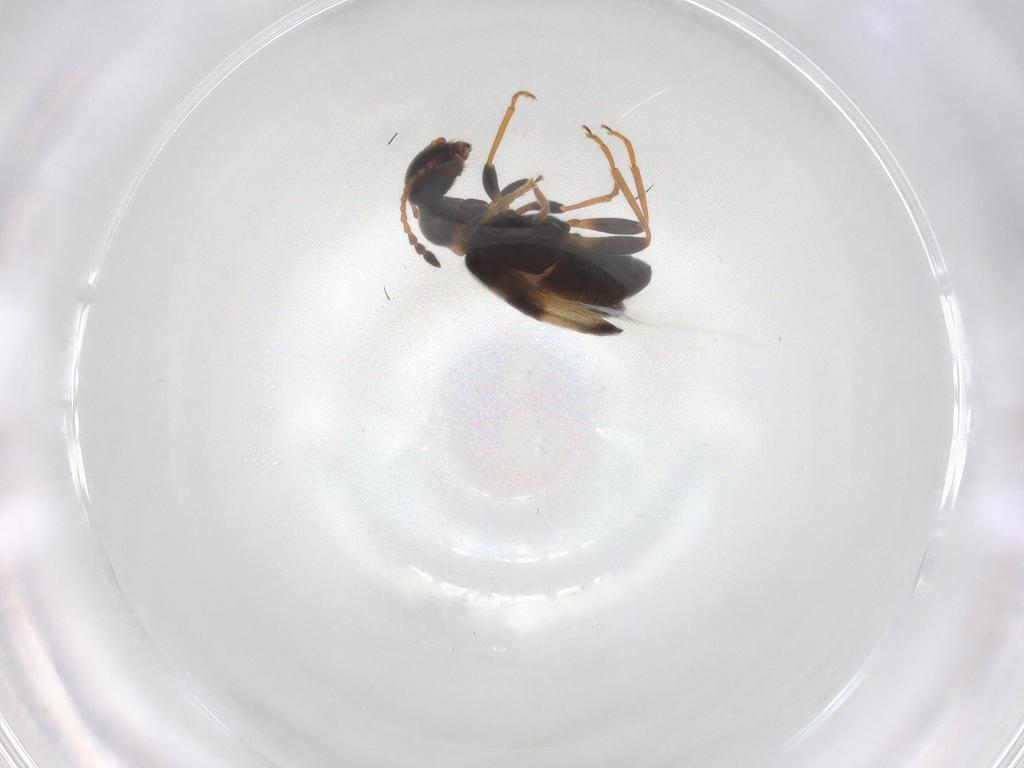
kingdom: Animalia
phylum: Arthropoda
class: Insecta
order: Coleoptera
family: Anthicidae
